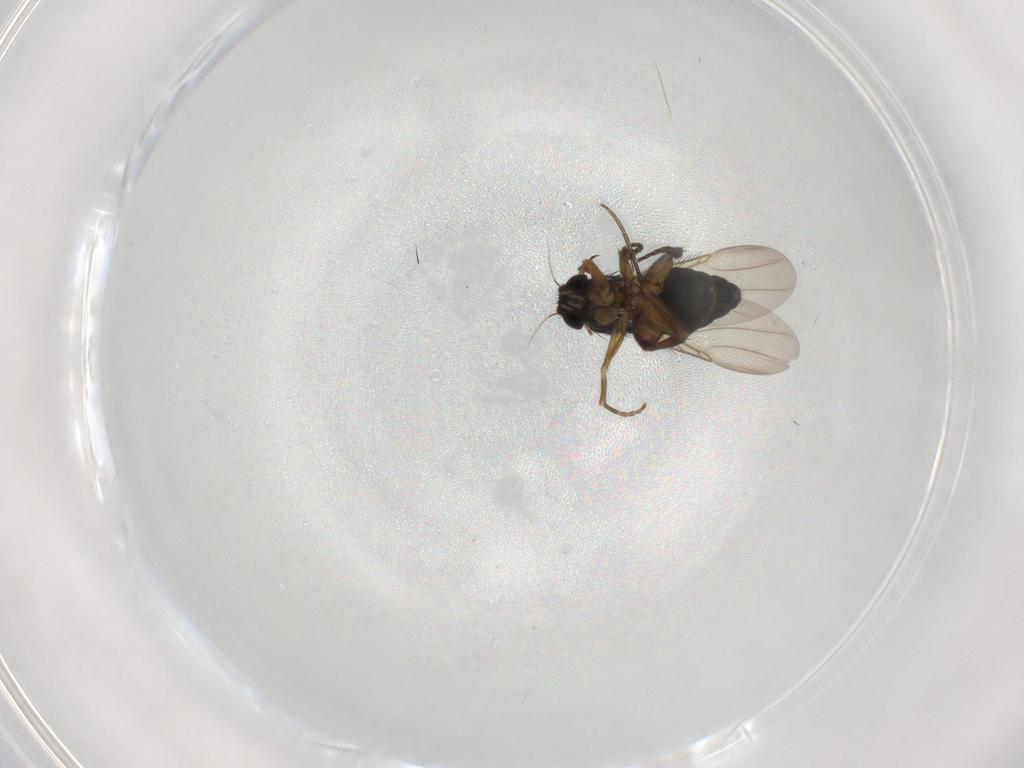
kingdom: Animalia
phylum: Arthropoda
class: Insecta
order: Diptera
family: Phoridae
